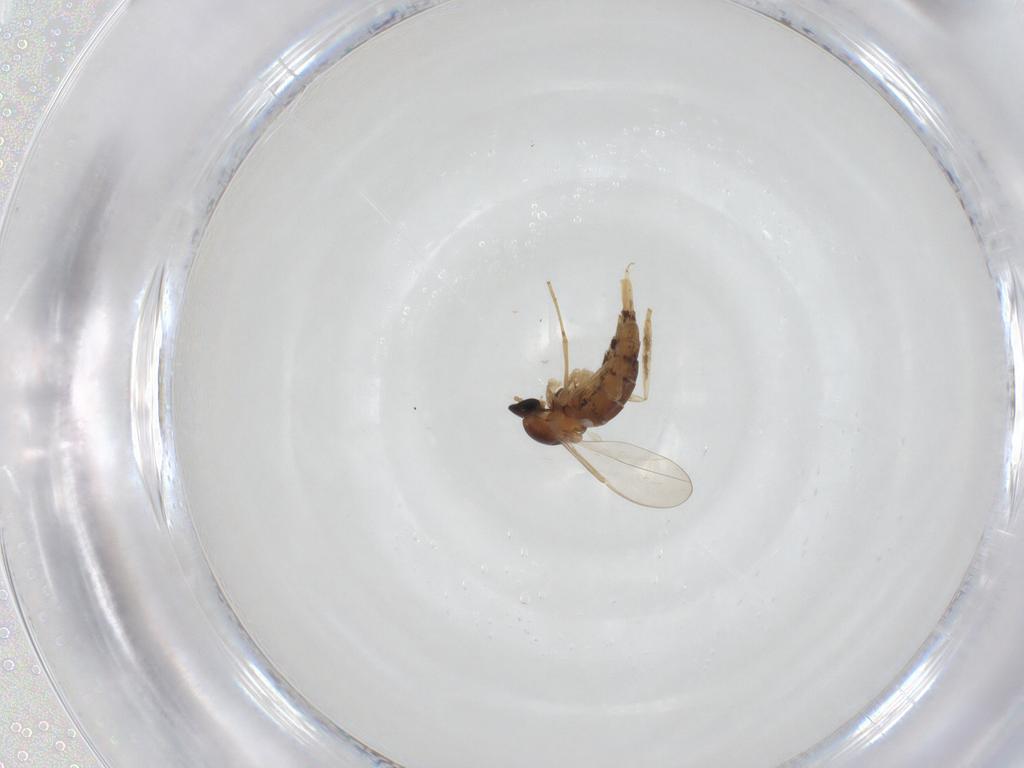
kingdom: Animalia
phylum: Arthropoda
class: Insecta
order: Diptera
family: Cecidomyiidae
